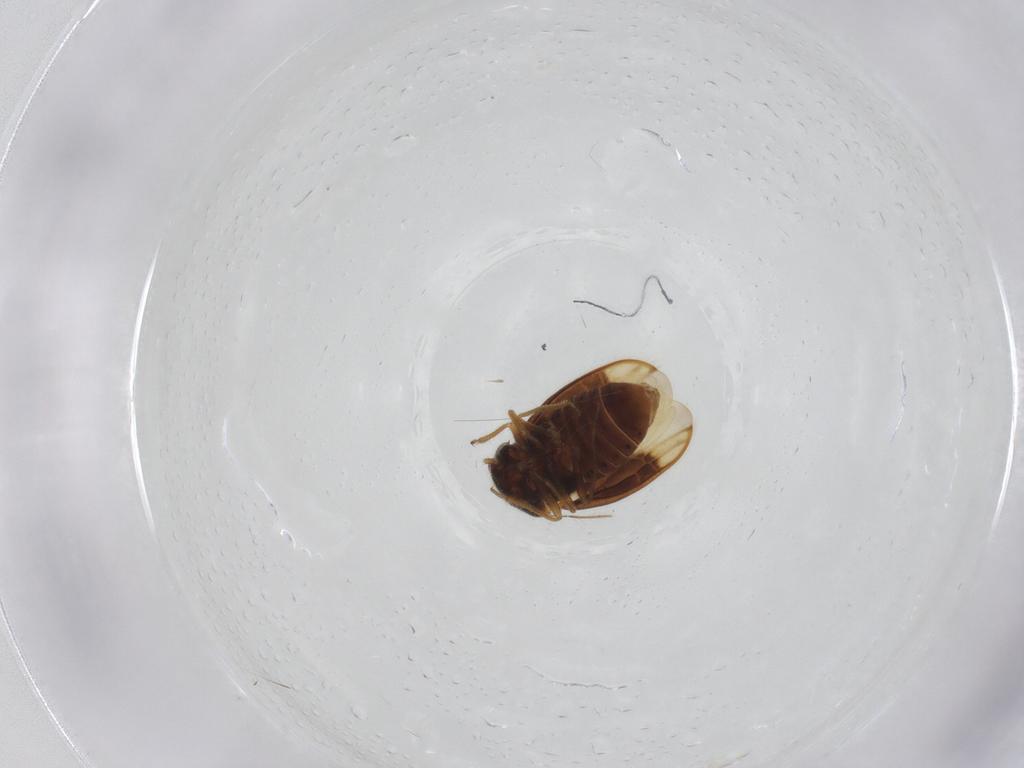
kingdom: Animalia
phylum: Arthropoda
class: Insecta
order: Hemiptera
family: Schizopteridae
